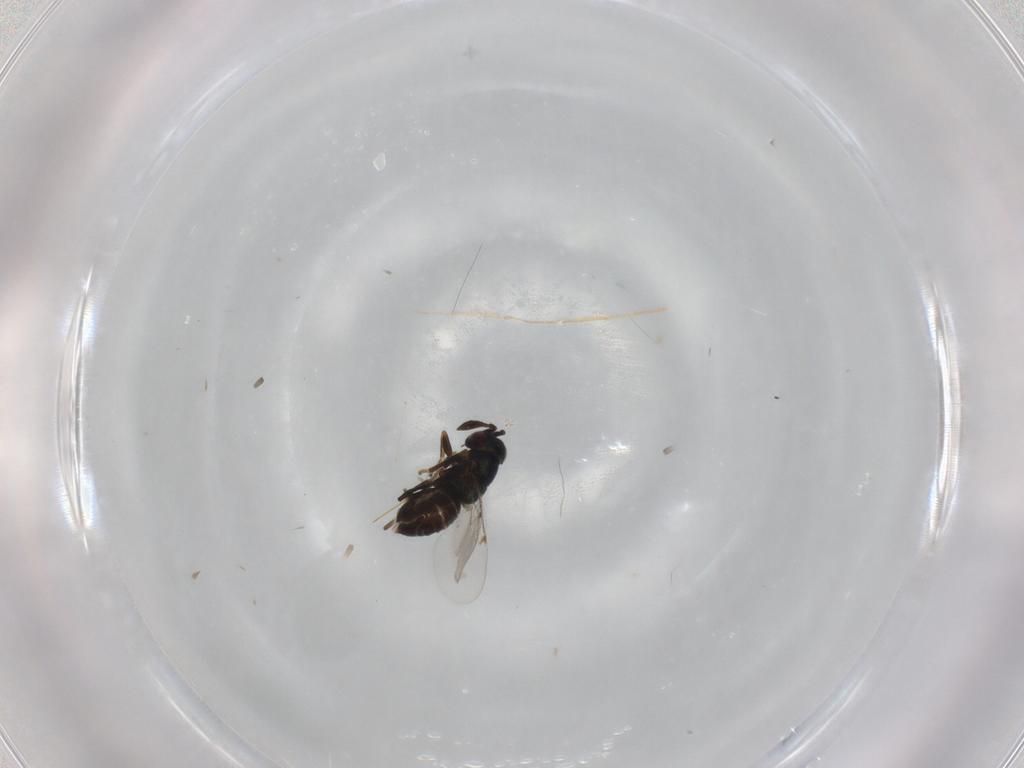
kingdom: Animalia
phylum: Arthropoda
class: Insecta
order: Hymenoptera
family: Encyrtidae
